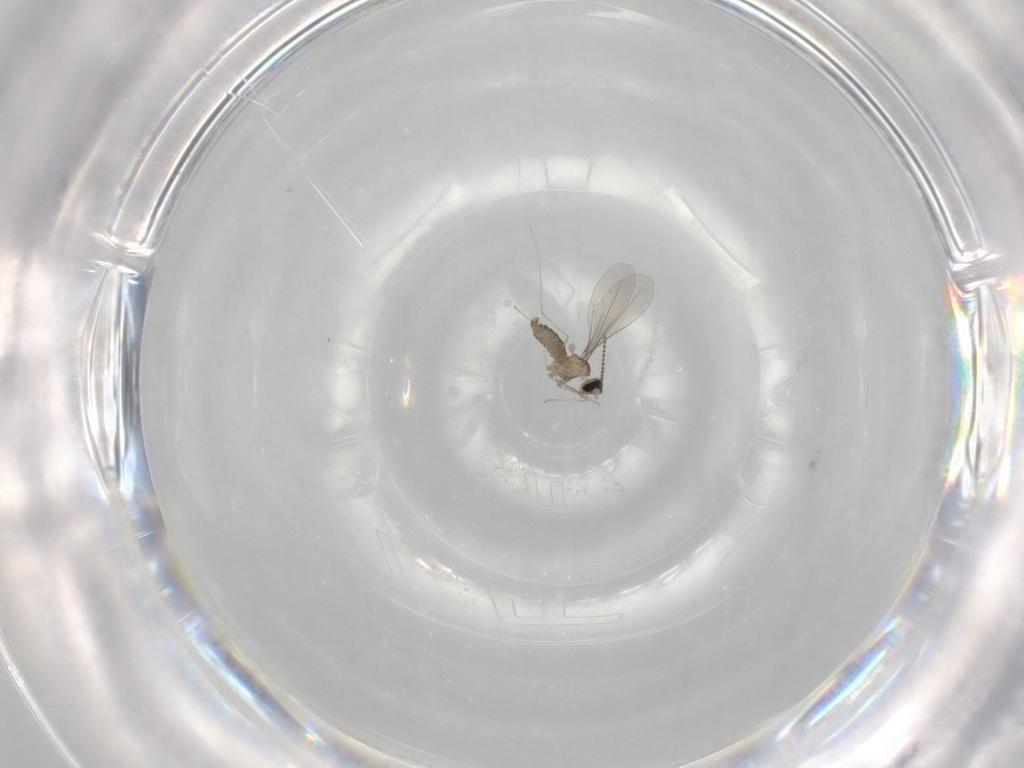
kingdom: Animalia
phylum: Arthropoda
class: Insecta
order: Diptera
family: Cecidomyiidae
